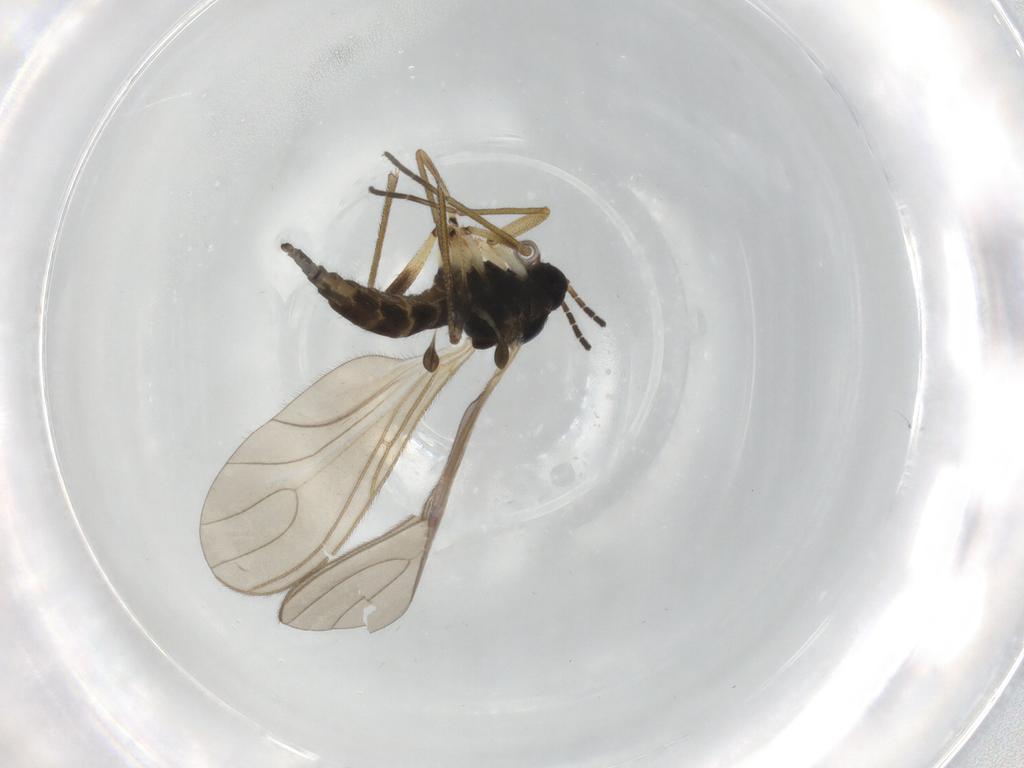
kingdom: Animalia
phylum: Arthropoda
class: Insecta
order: Diptera
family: Sciaridae
